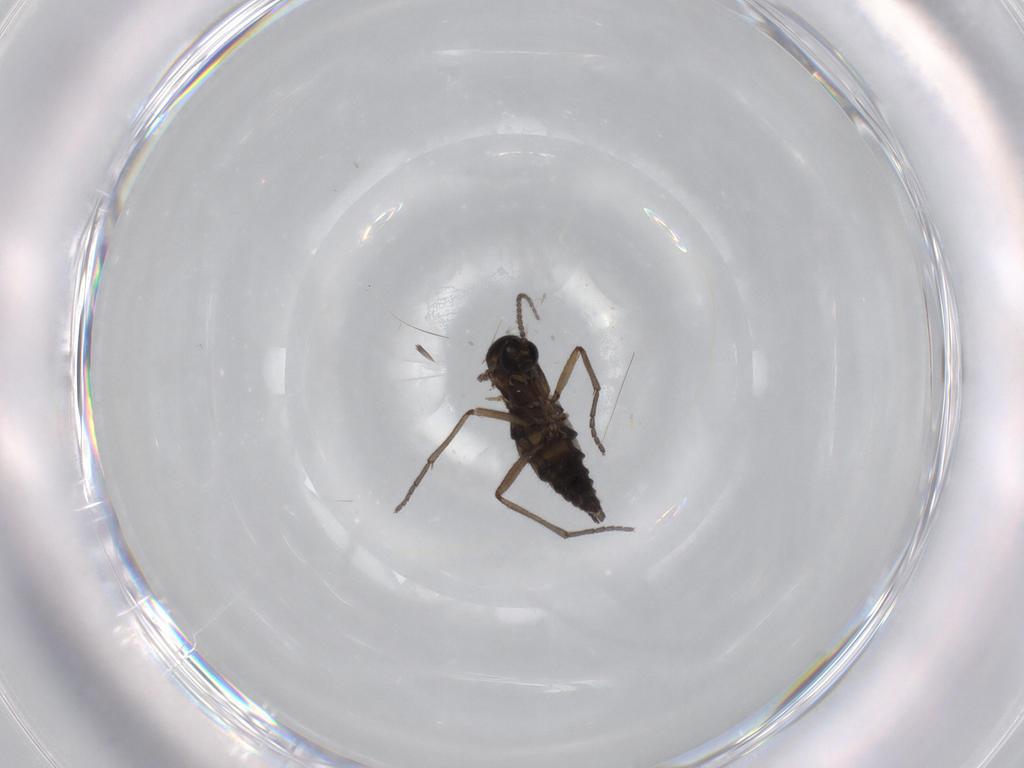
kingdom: Animalia
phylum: Arthropoda
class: Insecta
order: Diptera
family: Sciaridae
